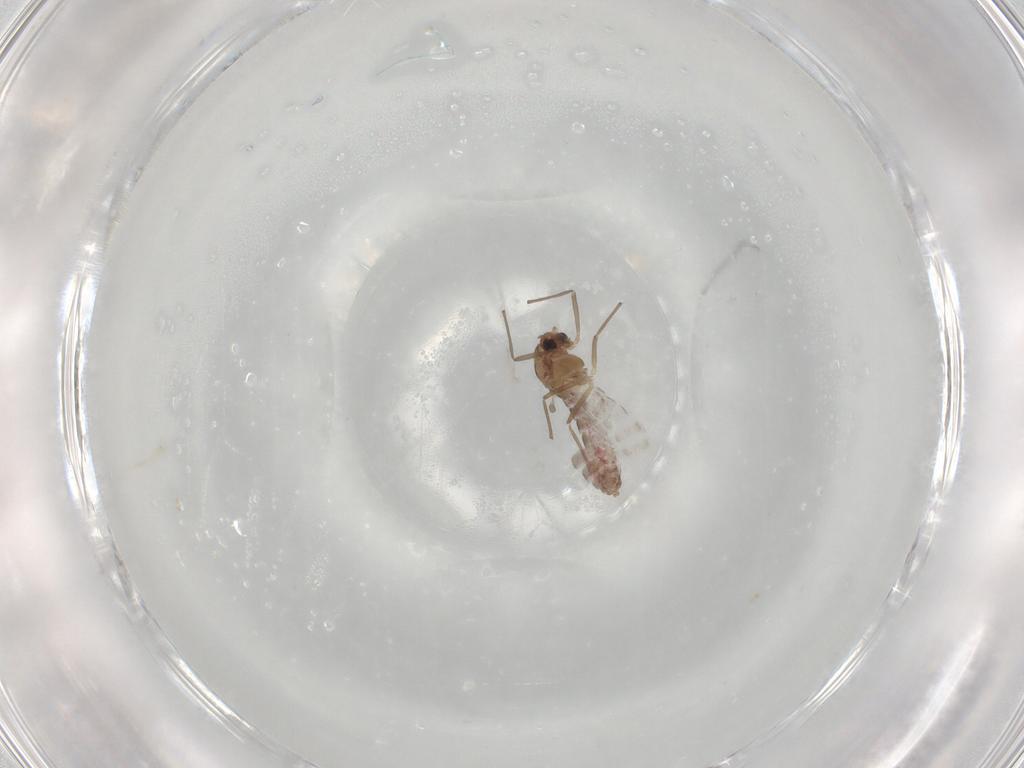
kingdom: Animalia
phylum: Arthropoda
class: Insecta
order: Diptera
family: Chironomidae
